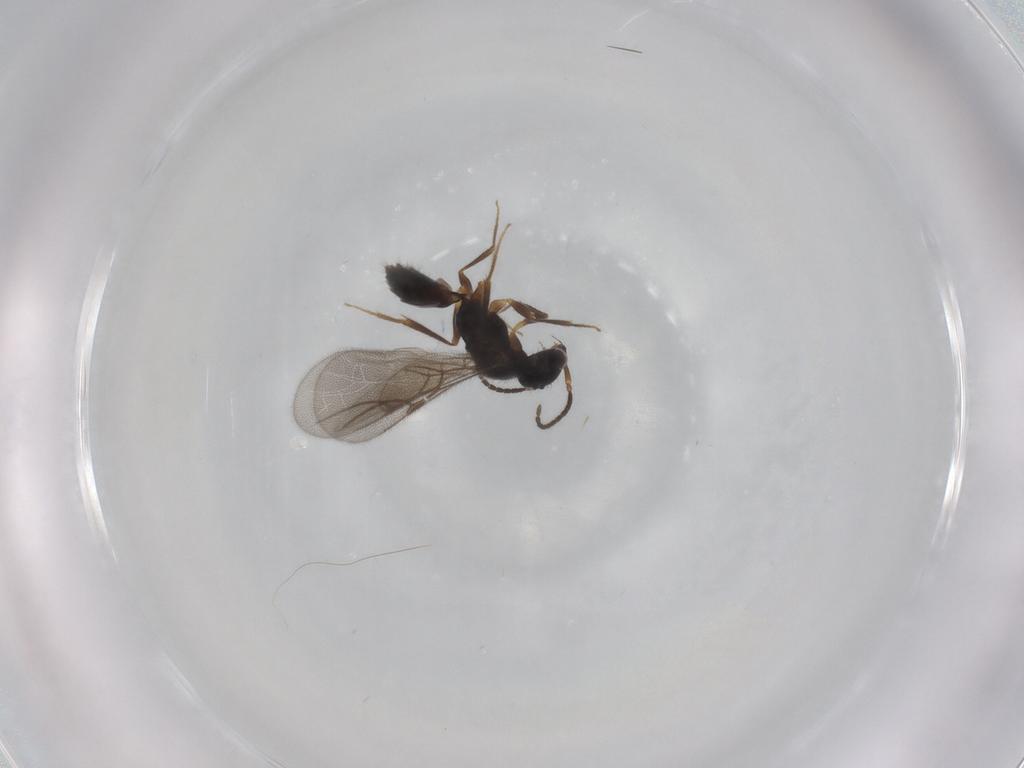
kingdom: Animalia
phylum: Arthropoda
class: Insecta
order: Hymenoptera
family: Bethylidae
